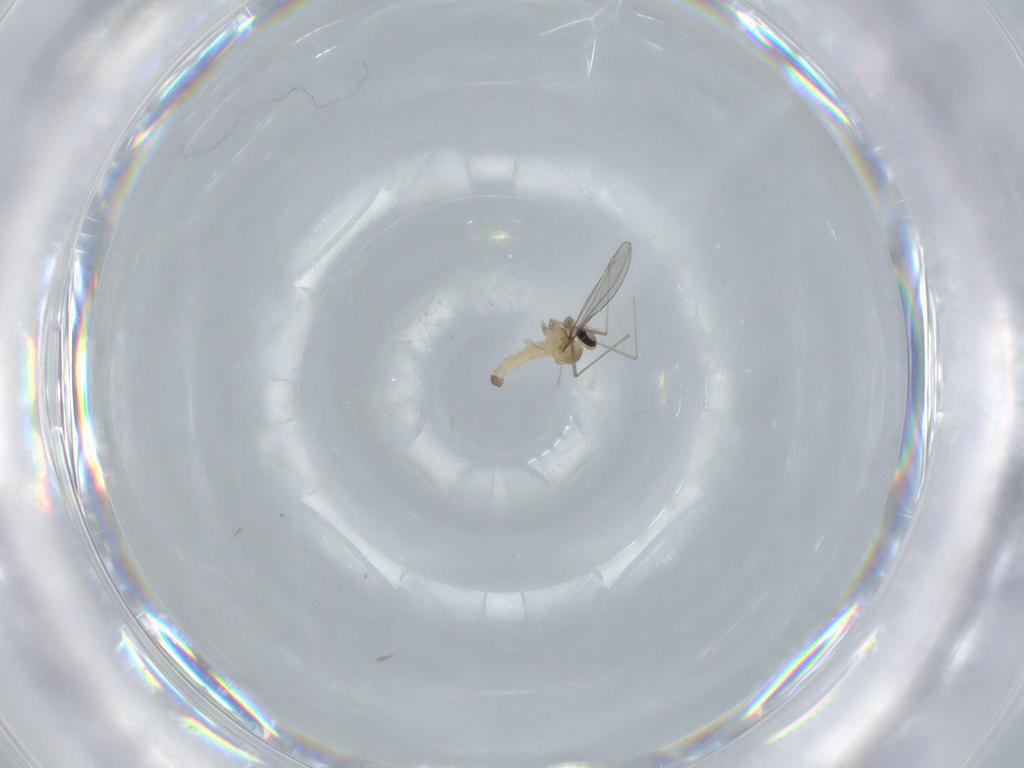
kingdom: Animalia
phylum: Arthropoda
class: Insecta
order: Diptera
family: Cecidomyiidae
